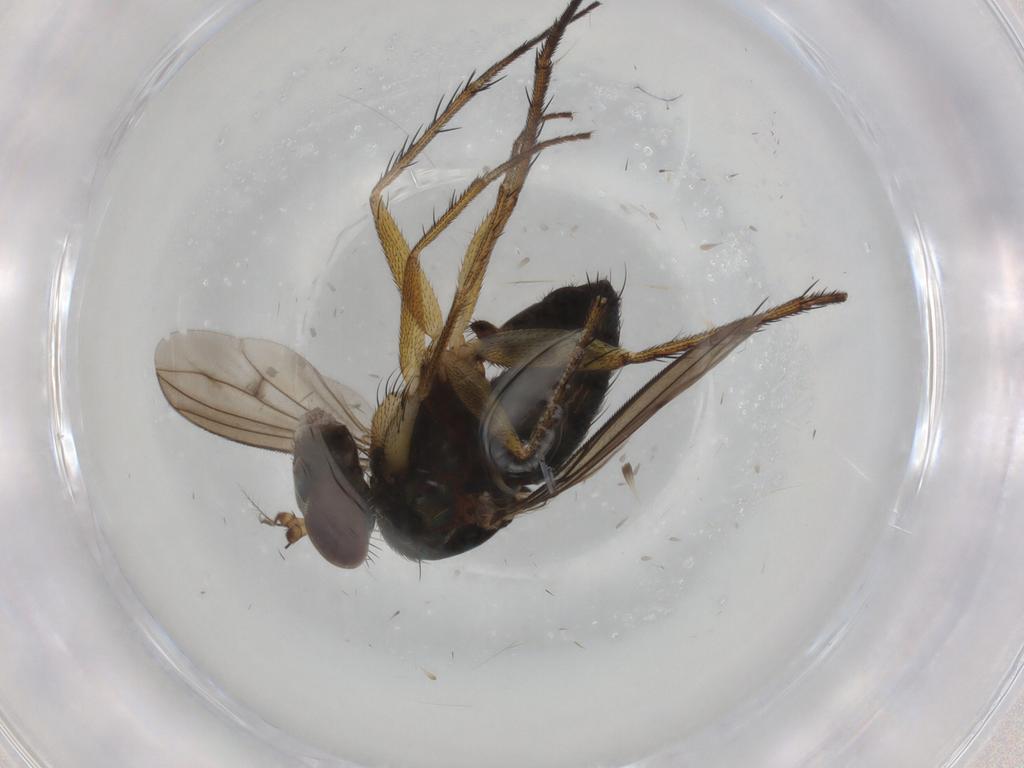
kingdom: Animalia
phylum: Arthropoda
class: Insecta
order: Diptera
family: Dolichopodidae
